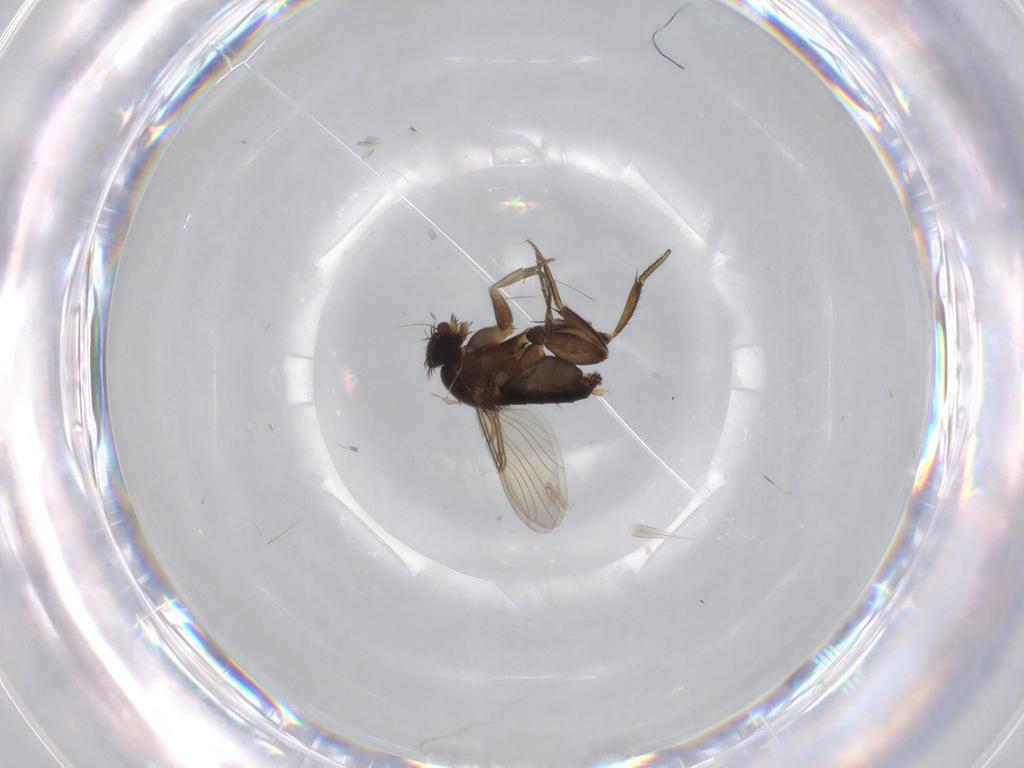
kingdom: Animalia
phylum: Arthropoda
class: Insecta
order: Diptera
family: Phoridae
